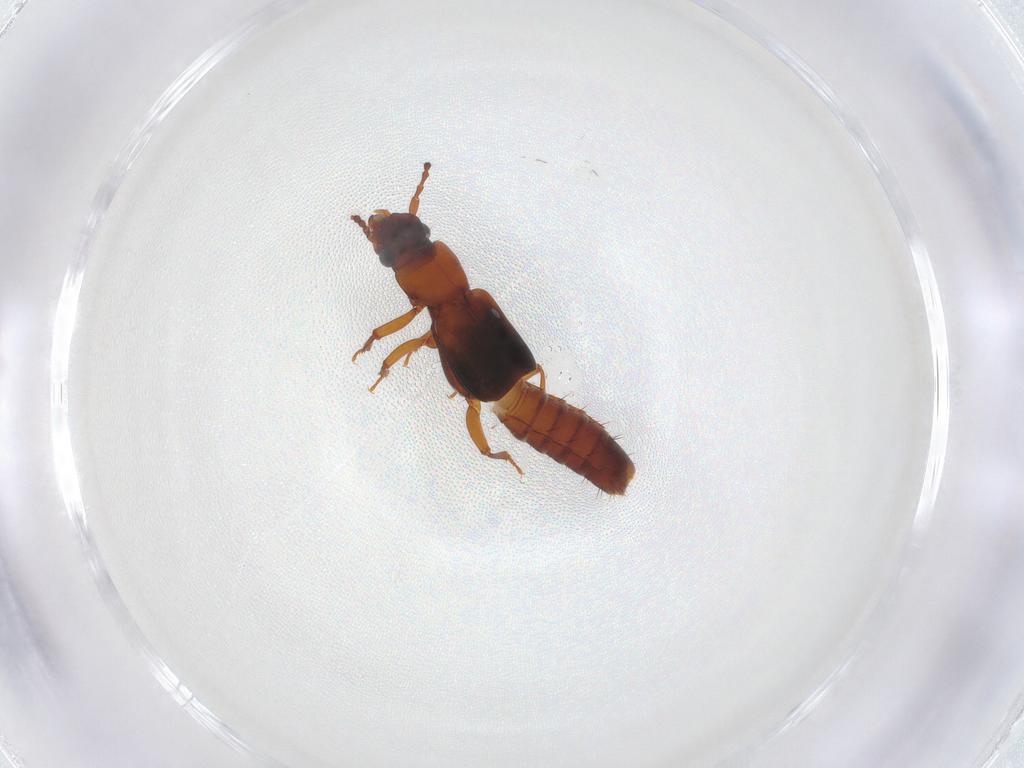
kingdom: Animalia
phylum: Arthropoda
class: Insecta
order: Coleoptera
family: Staphylinidae
